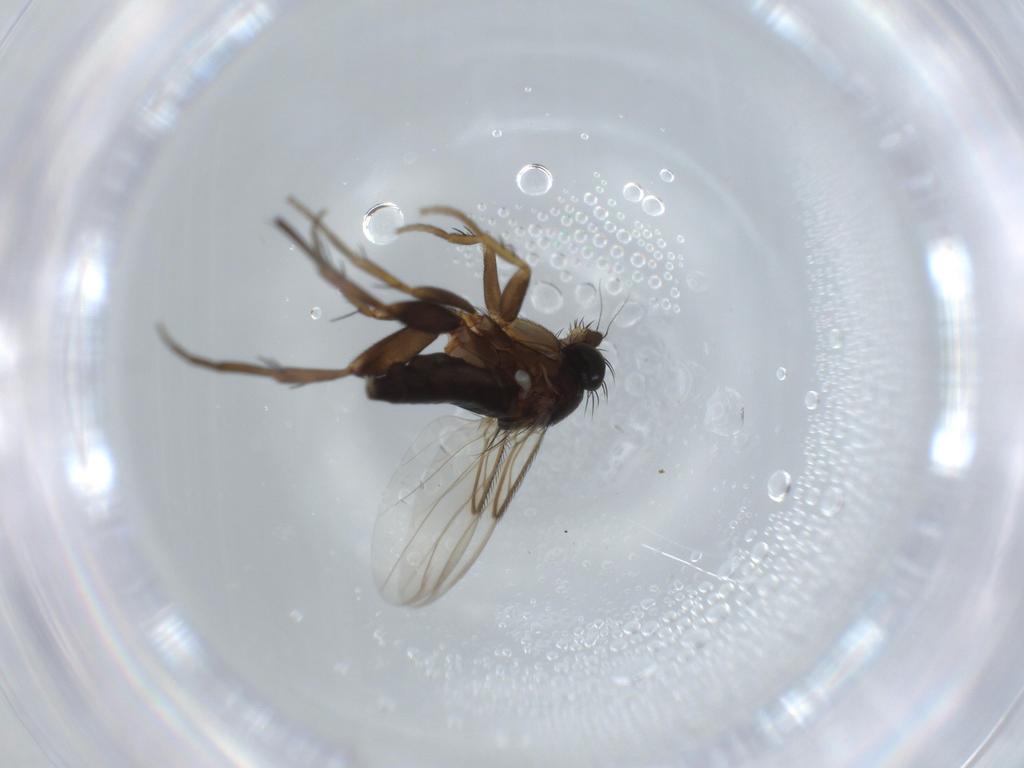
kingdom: Animalia
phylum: Arthropoda
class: Insecta
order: Diptera
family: Phoridae
